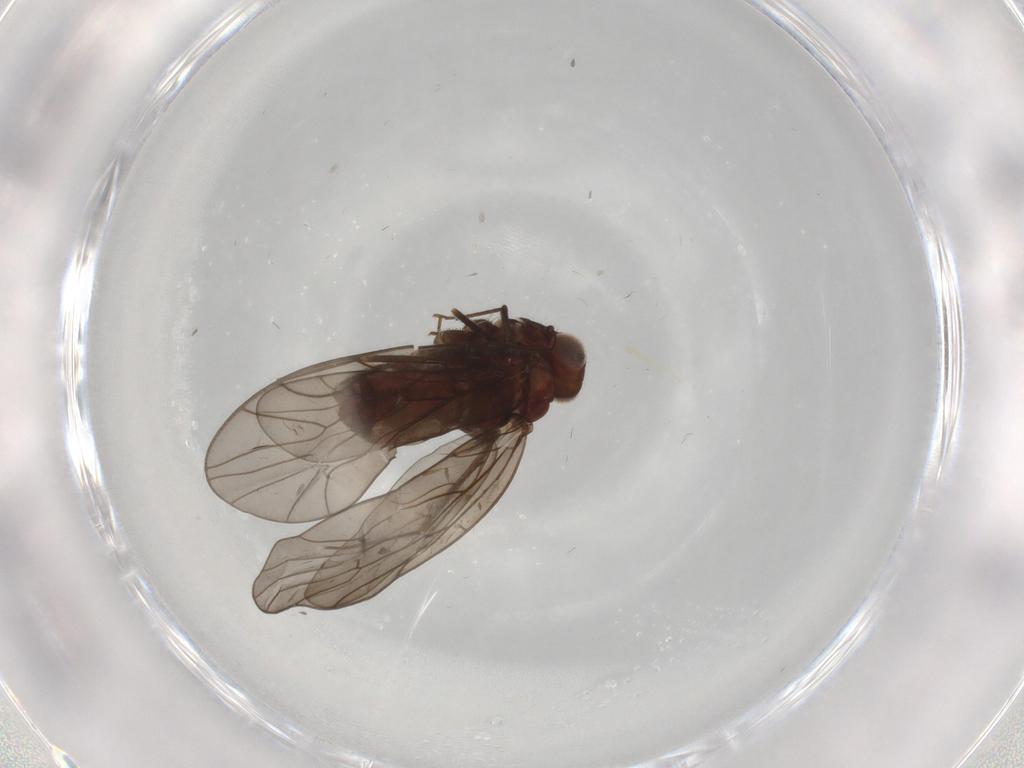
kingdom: Animalia
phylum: Arthropoda
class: Insecta
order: Psocodea
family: Philotarsidae
